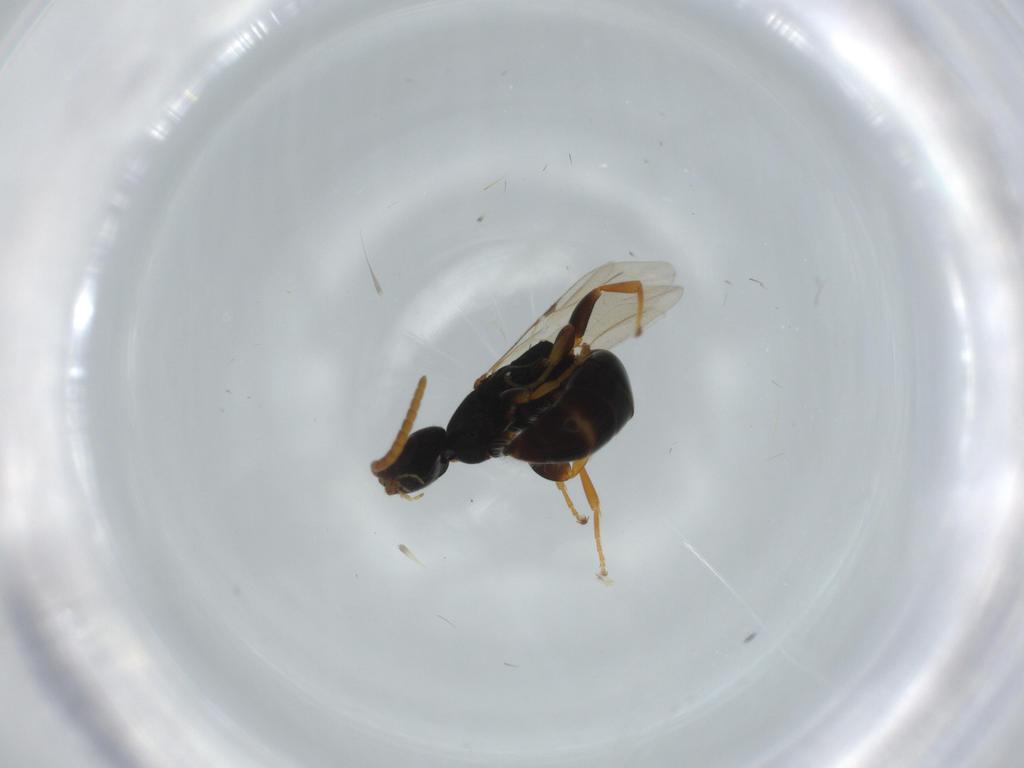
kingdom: Animalia
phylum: Arthropoda
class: Insecta
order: Hymenoptera
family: Bethylidae
